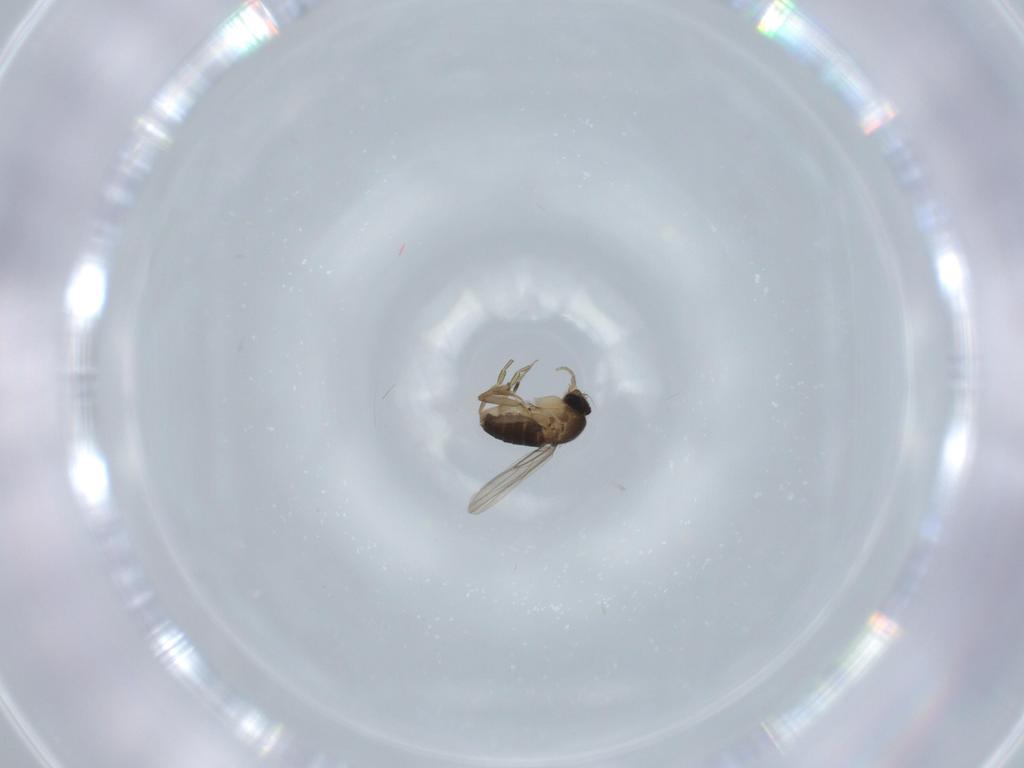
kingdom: Animalia
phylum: Arthropoda
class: Insecta
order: Diptera
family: Phoridae
